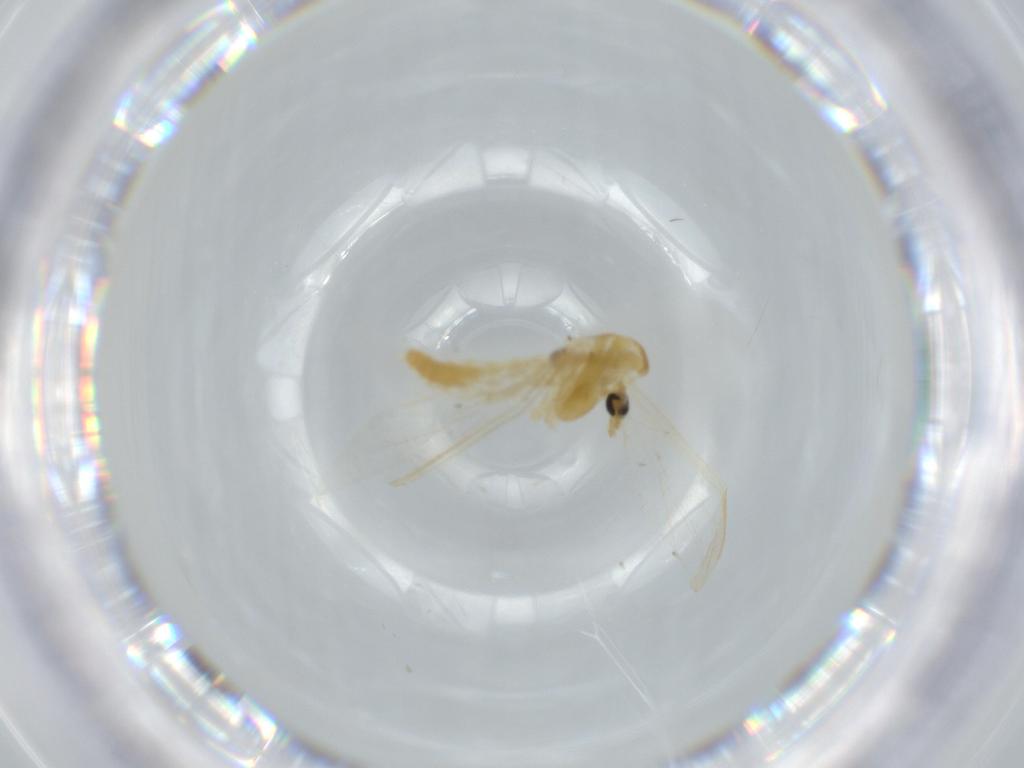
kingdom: Animalia
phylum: Arthropoda
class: Insecta
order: Diptera
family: Chironomidae
